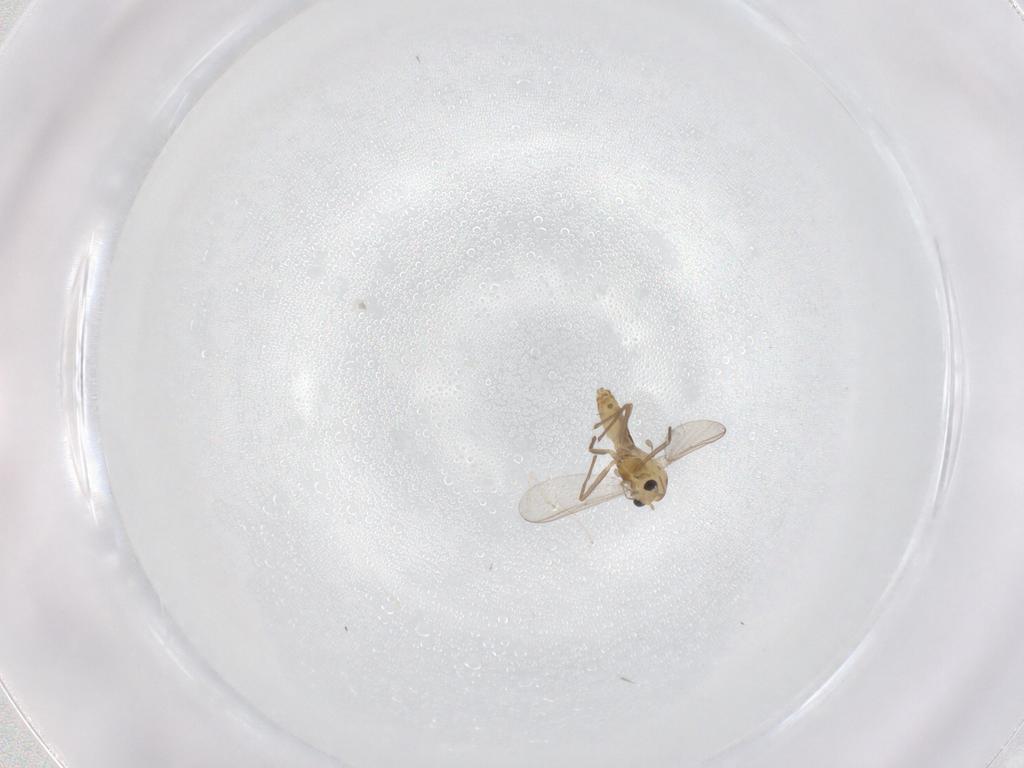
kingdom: Animalia
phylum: Arthropoda
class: Insecta
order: Diptera
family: Chironomidae
